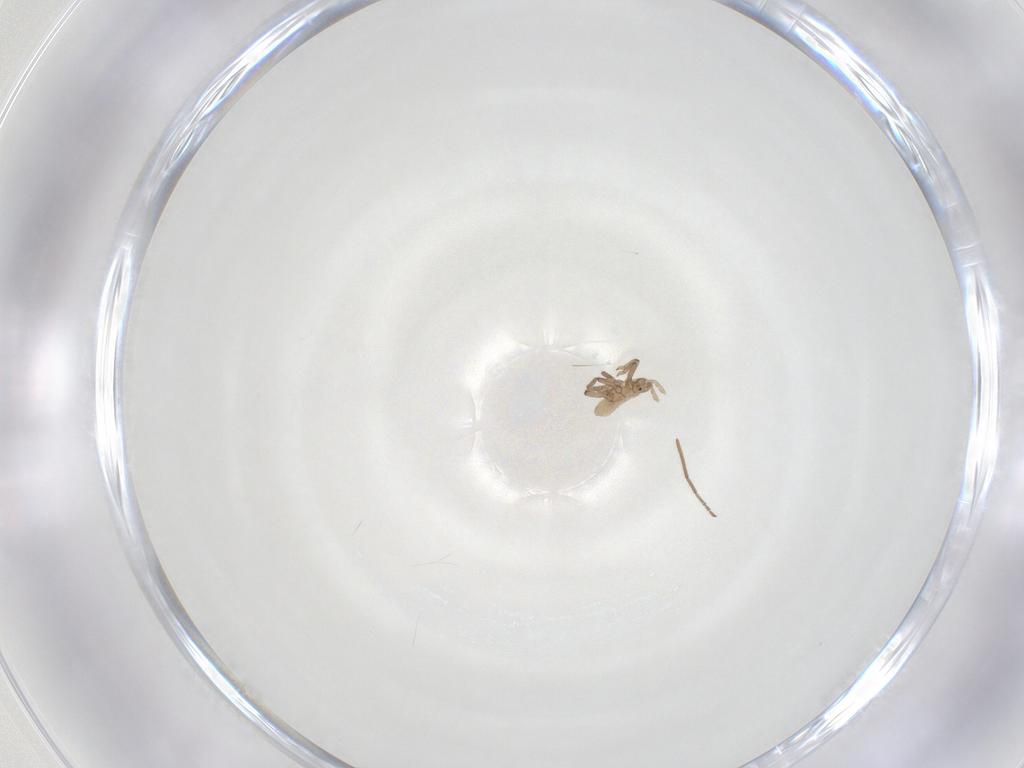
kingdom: Animalia
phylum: Arthropoda
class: Insecta
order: Hemiptera
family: Aphididae
